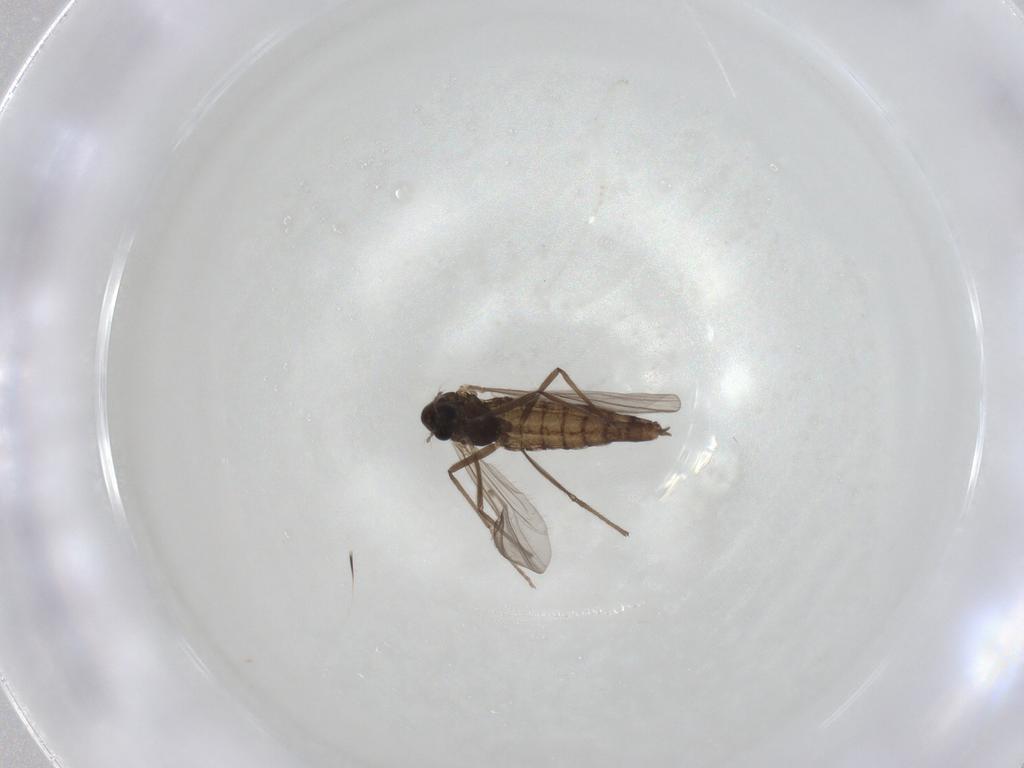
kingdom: Animalia
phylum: Arthropoda
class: Insecta
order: Diptera
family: Chironomidae
